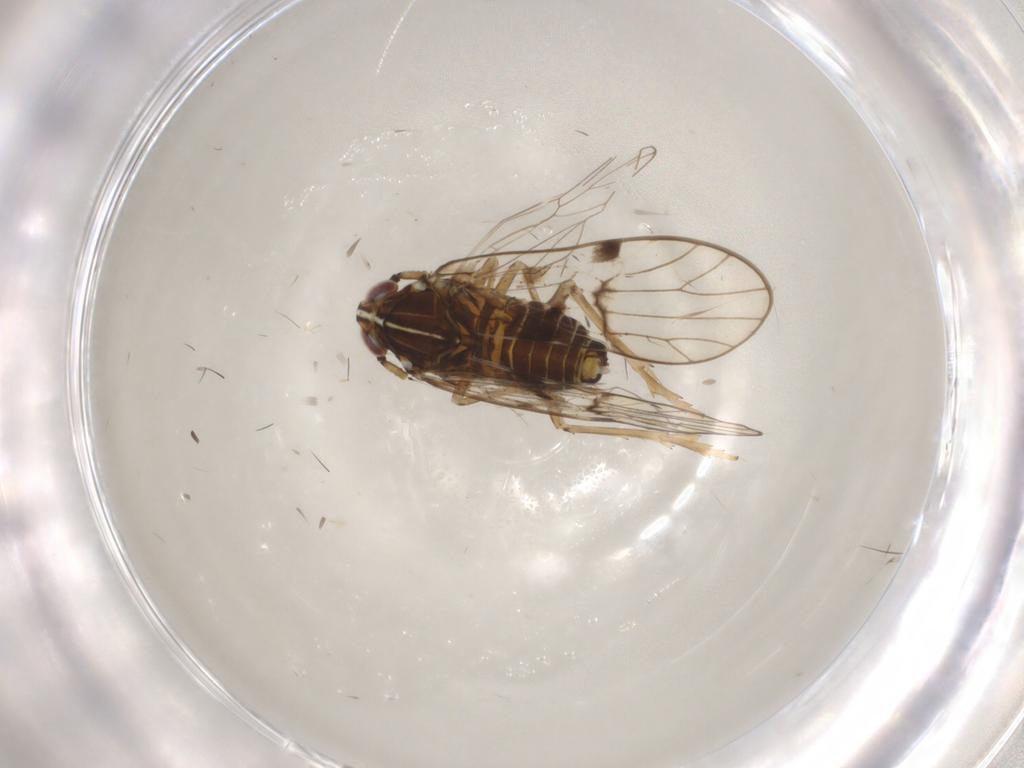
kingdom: Animalia
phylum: Arthropoda
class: Insecta
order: Hemiptera
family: Delphacidae
